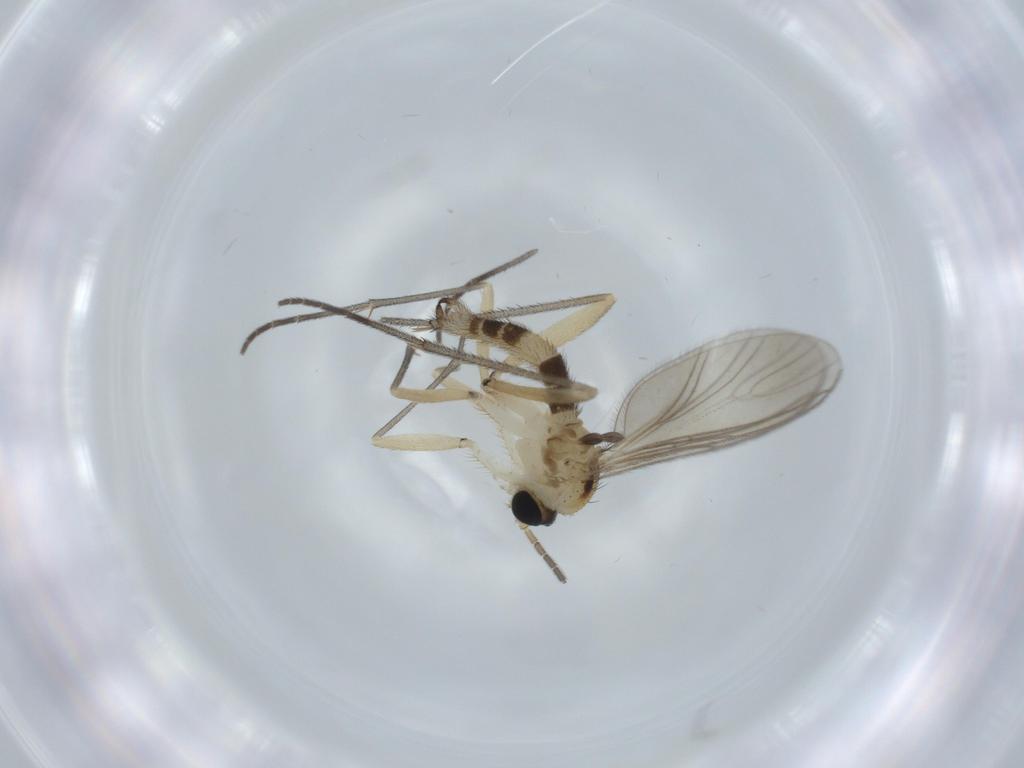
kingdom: Animalia
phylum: Arthropoda
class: Insecta
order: Diptera
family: Sciaridae
